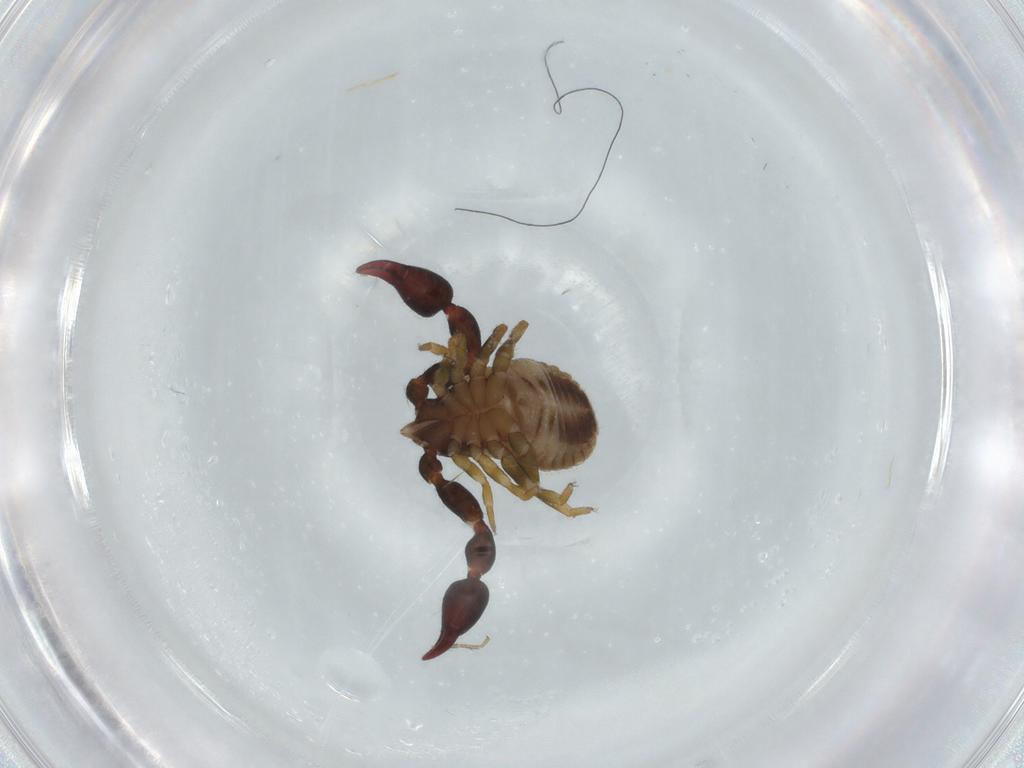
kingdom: Animalia
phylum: Arthropoda
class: Arachnida
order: Pseudoscorpiones
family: Chernetidae
